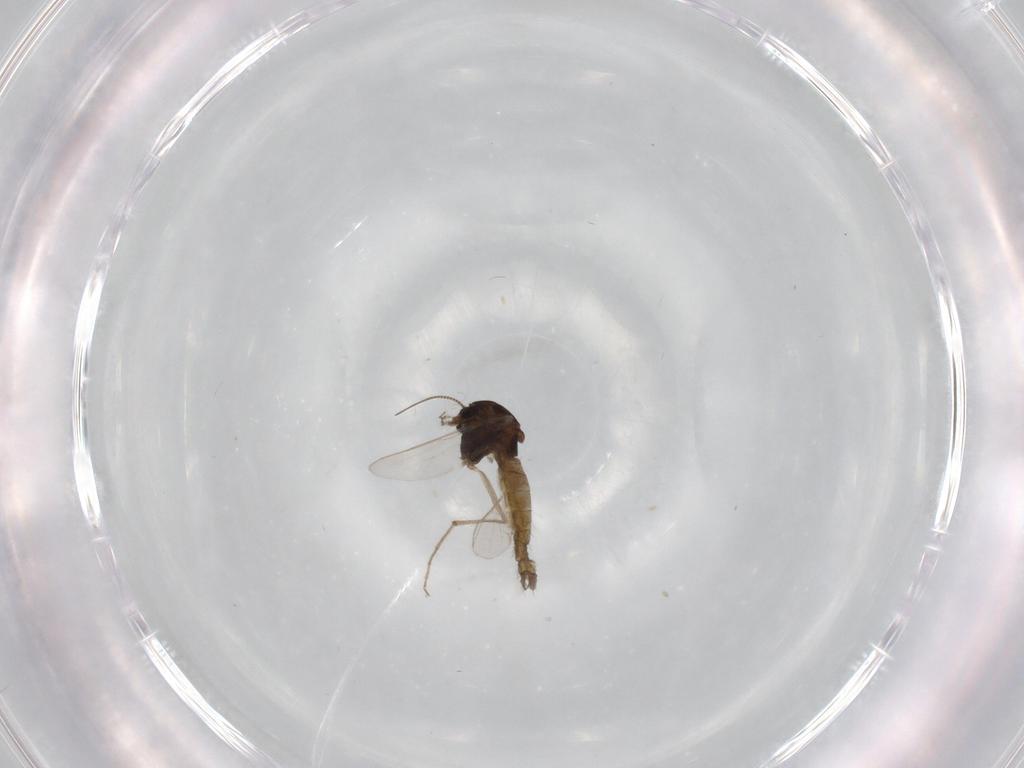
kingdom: Animalia
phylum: Arthropoda
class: Insecta
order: Diptera
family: Chironomidae
